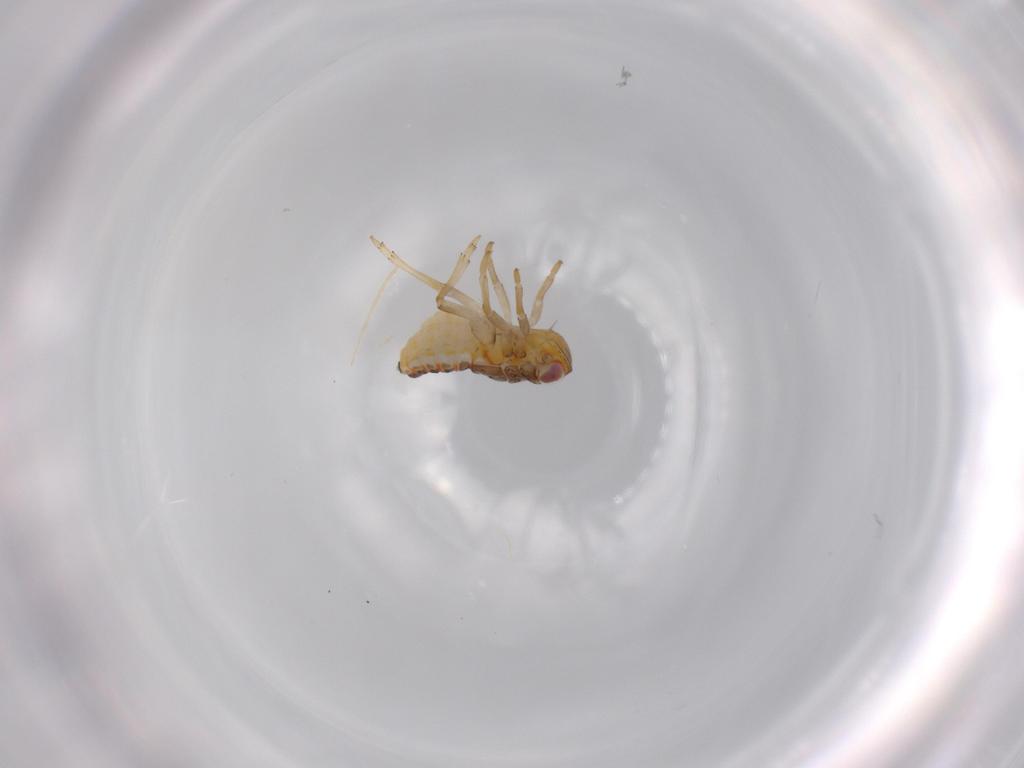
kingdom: Animalia
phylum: Arthropoda
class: Insecta
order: Hemiptera
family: Issidae
